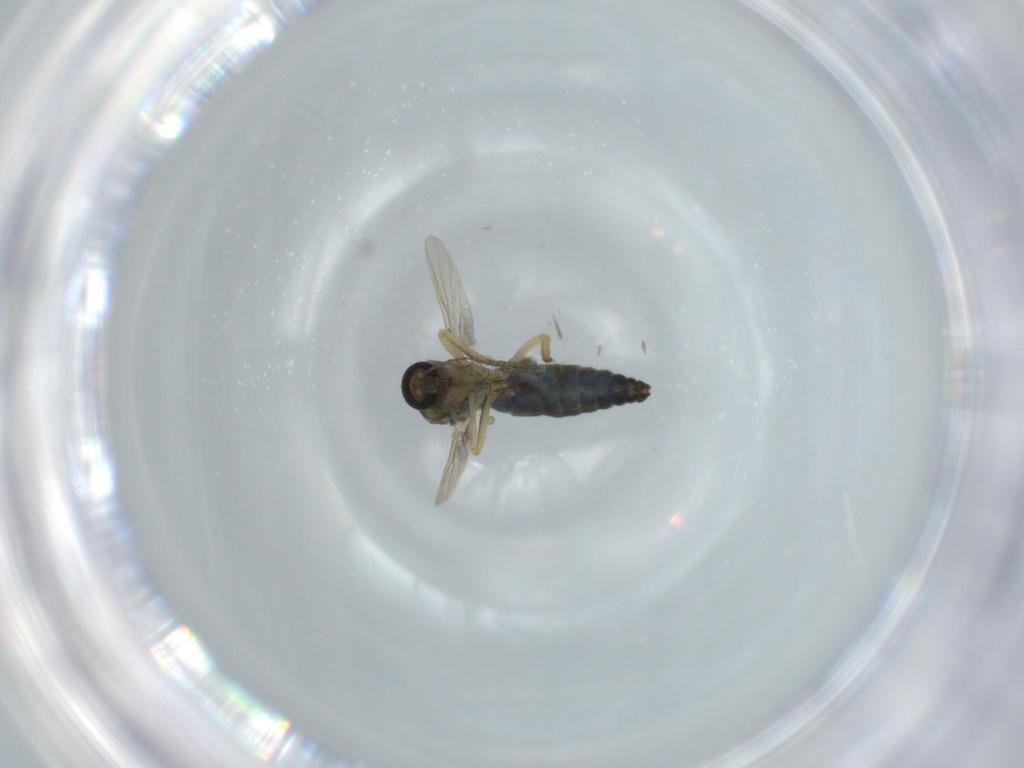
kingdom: Animalia
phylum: Arthropoda
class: Insecta
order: Diptera
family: Ceratopogonidae
